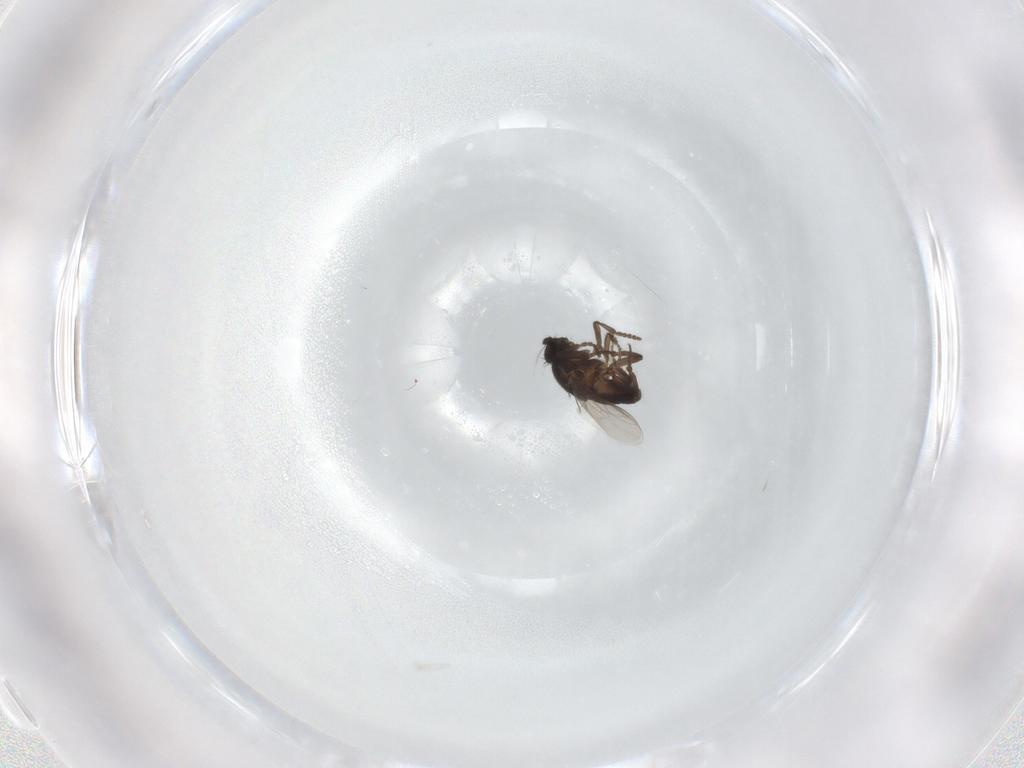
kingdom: Animalia
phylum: Arthropoda
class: Insecta
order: Diptera
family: Sphaeroceridae
